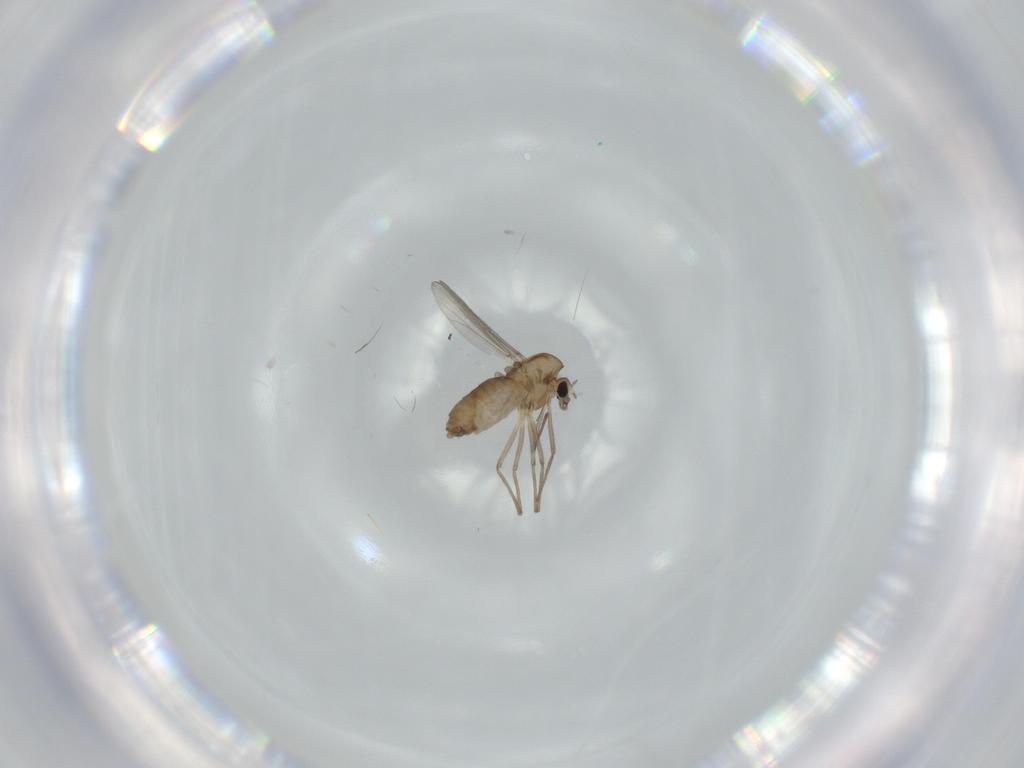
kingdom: Animalia
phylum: Arthropoda
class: Insecta
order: Diptera
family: Chironomidae
